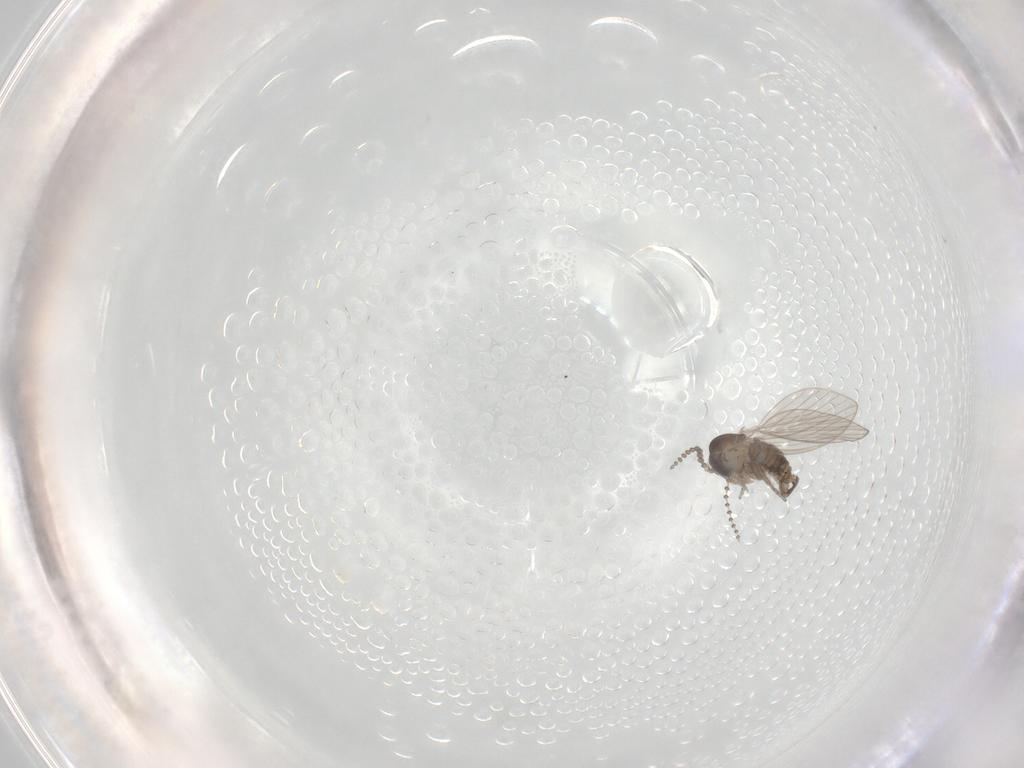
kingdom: Animalia
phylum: Arthropoda
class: Insecta
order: Diptera
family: Psychodidae
